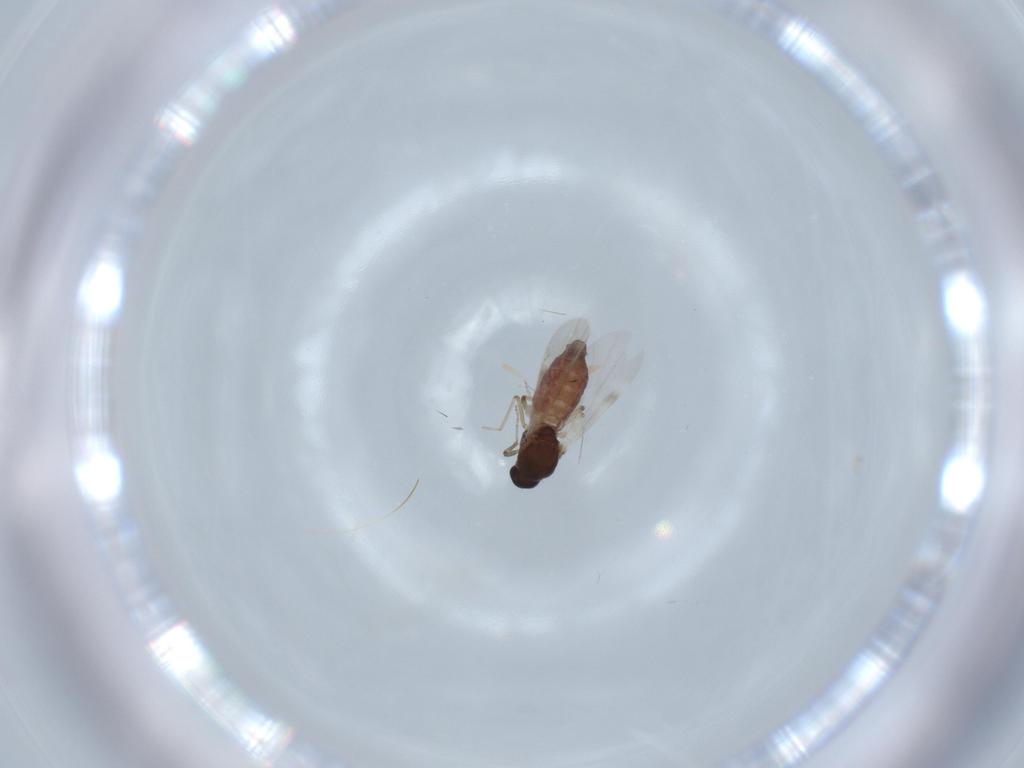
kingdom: Animalia
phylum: Arthropoda
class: Insecta
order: Diptera
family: Ceratopogonidae
